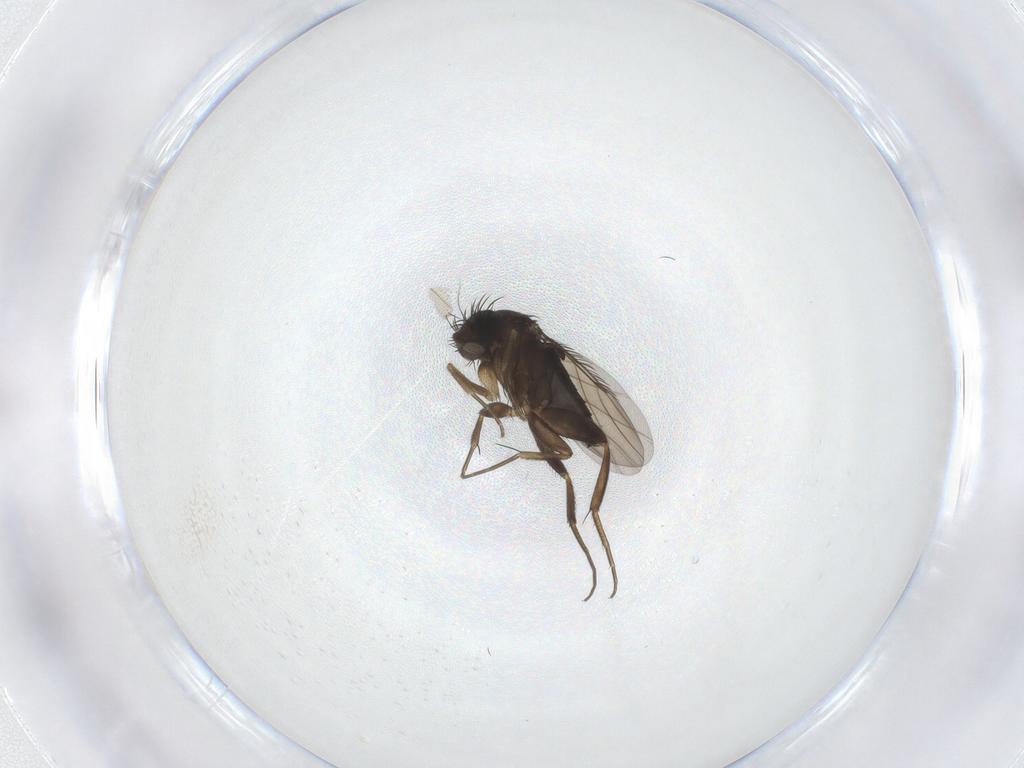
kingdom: Animalia
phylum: Arthropoda
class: Insecta
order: Diptera
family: Phoridae
